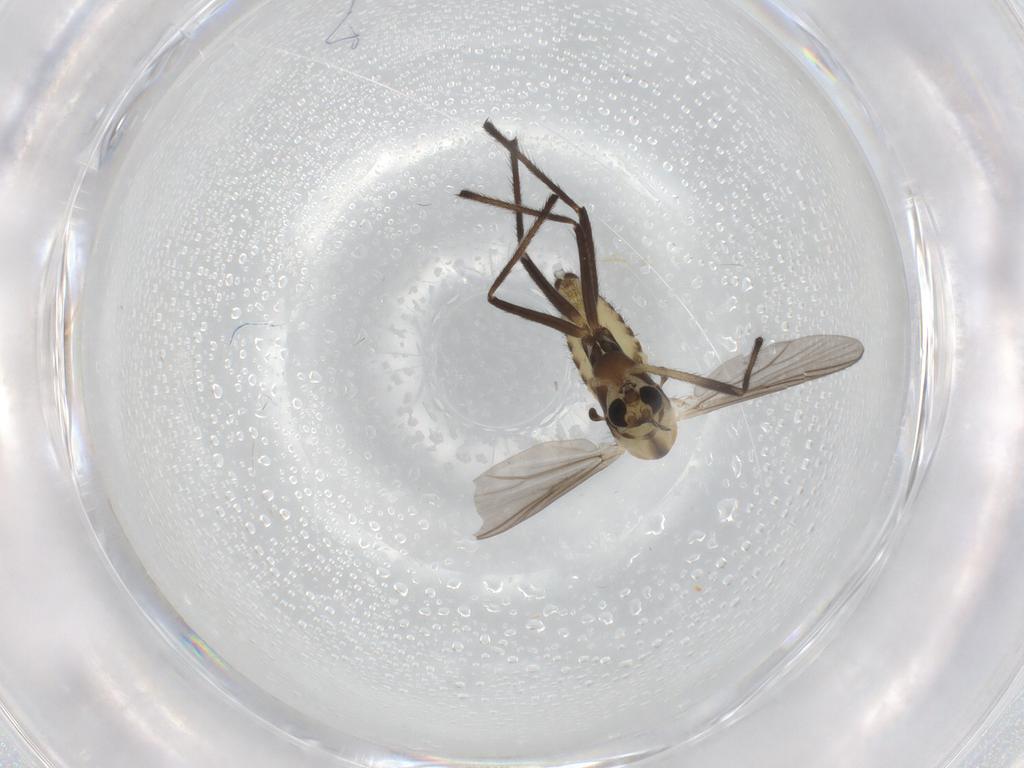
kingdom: Animalia
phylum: Arthropoda
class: Insecta
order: Diptera
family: Chironomidae
